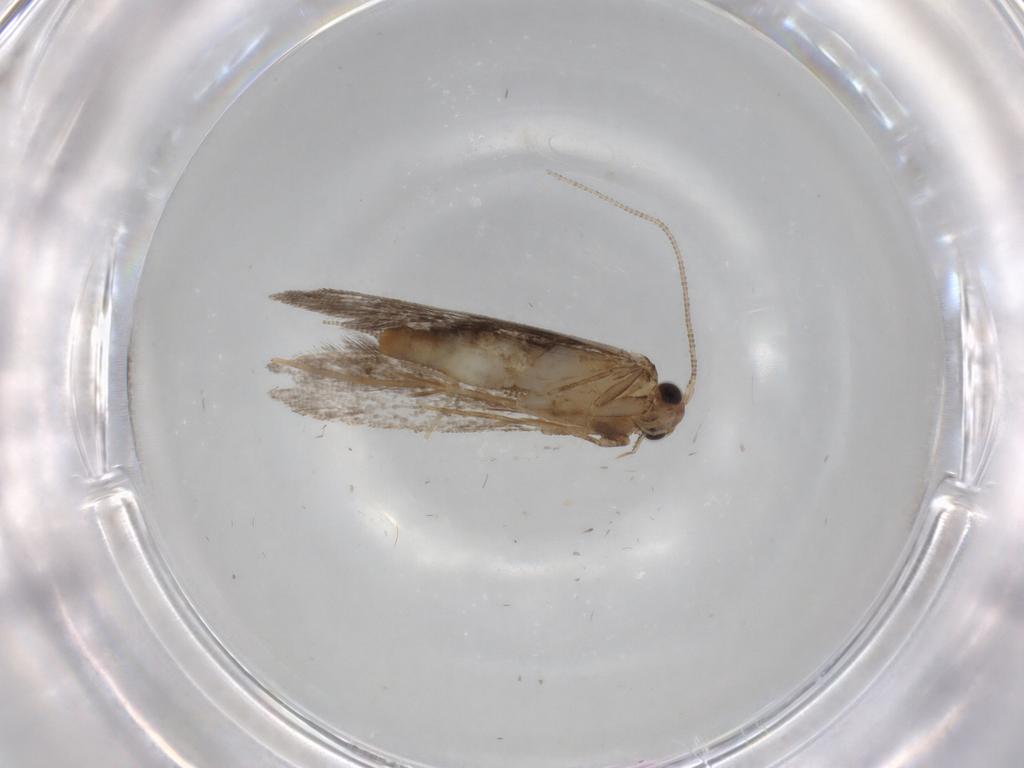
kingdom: Animalia
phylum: Arthropoda
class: Insecta
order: Lepidoptera
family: Tineidae
